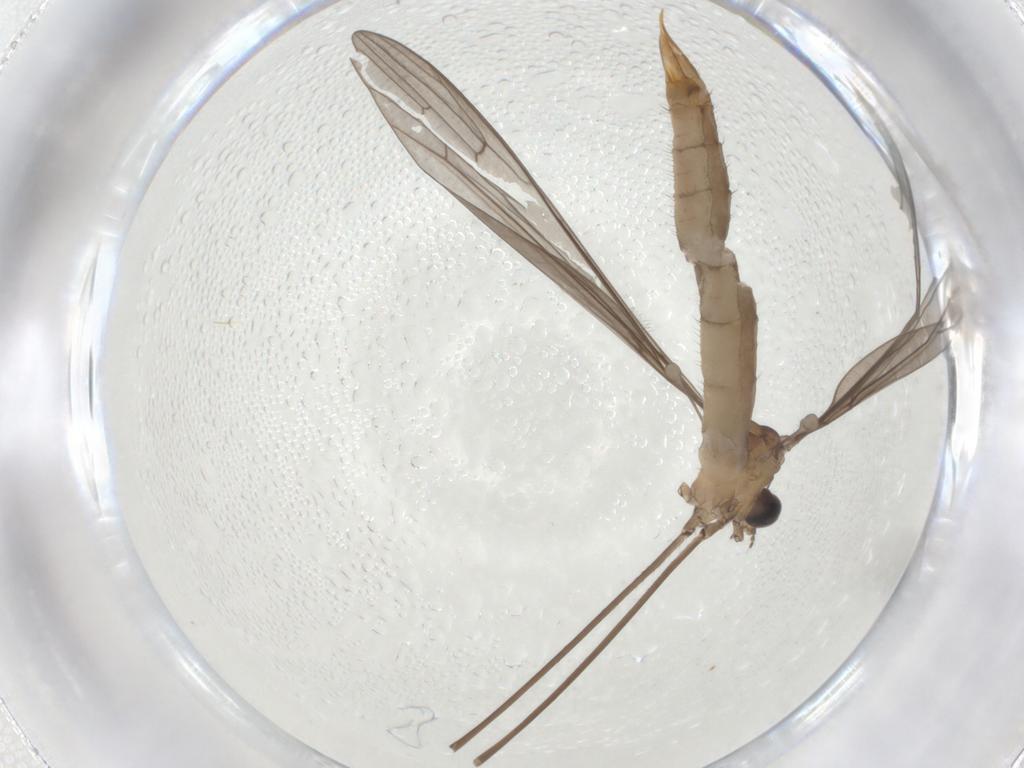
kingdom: Animalia
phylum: Arthropoda
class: Insecta
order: Diptera
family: Limoniidae
